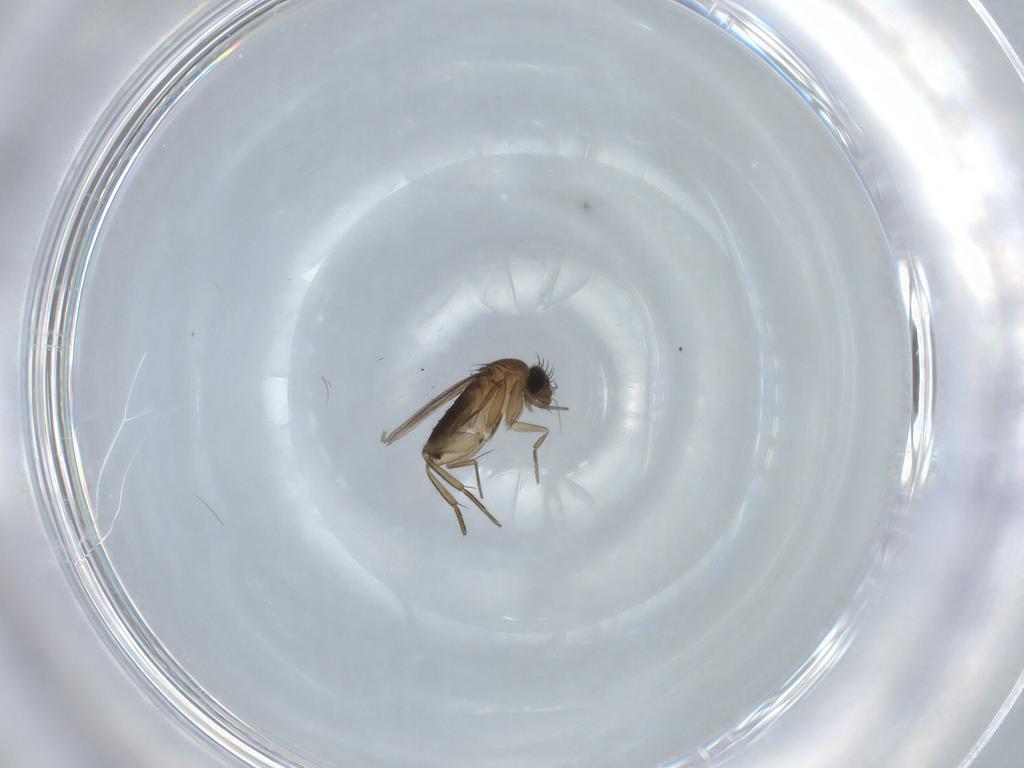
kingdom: Animalia
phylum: Arthropoda
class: Insecta
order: Diptera
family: Phoridae
